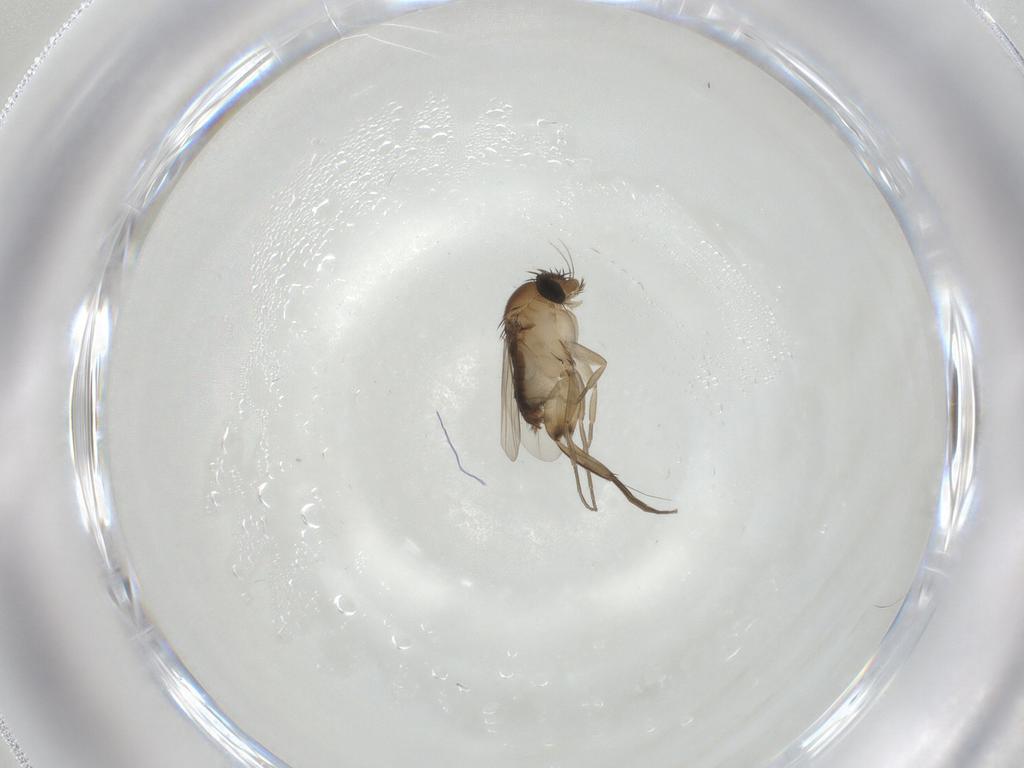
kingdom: Animalia
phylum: Arthropoda
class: Insecta
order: Diptera
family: Phoridae
